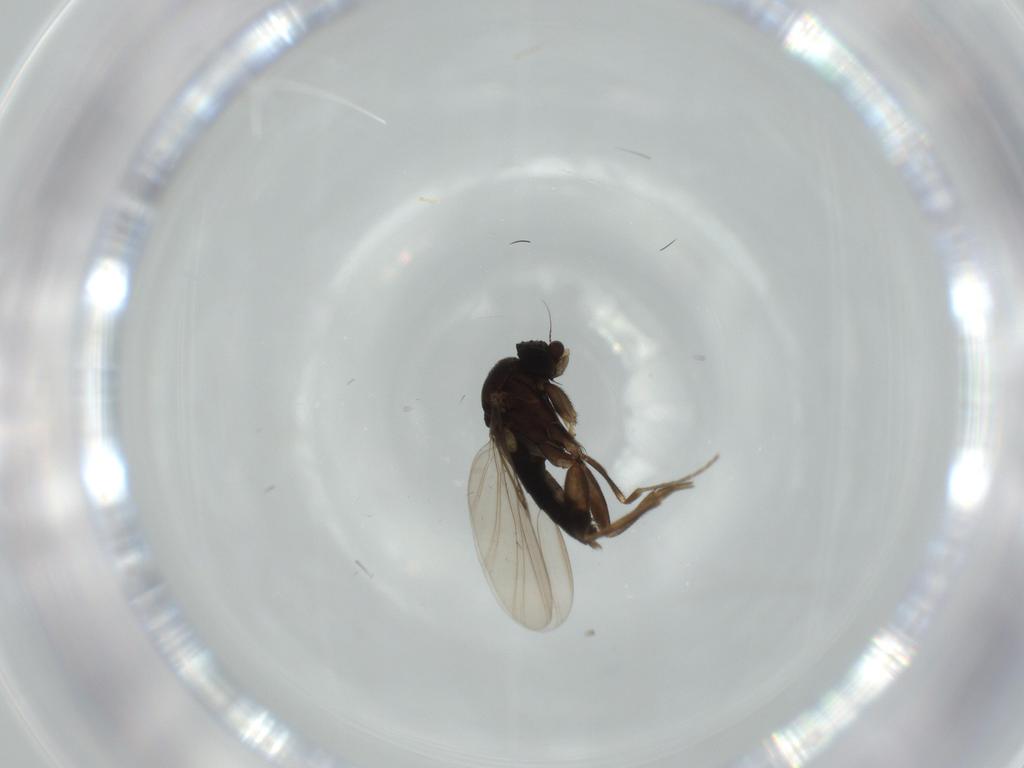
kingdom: Animalia
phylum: Arthropoda
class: Insecta
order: Diptera
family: Phoridae
